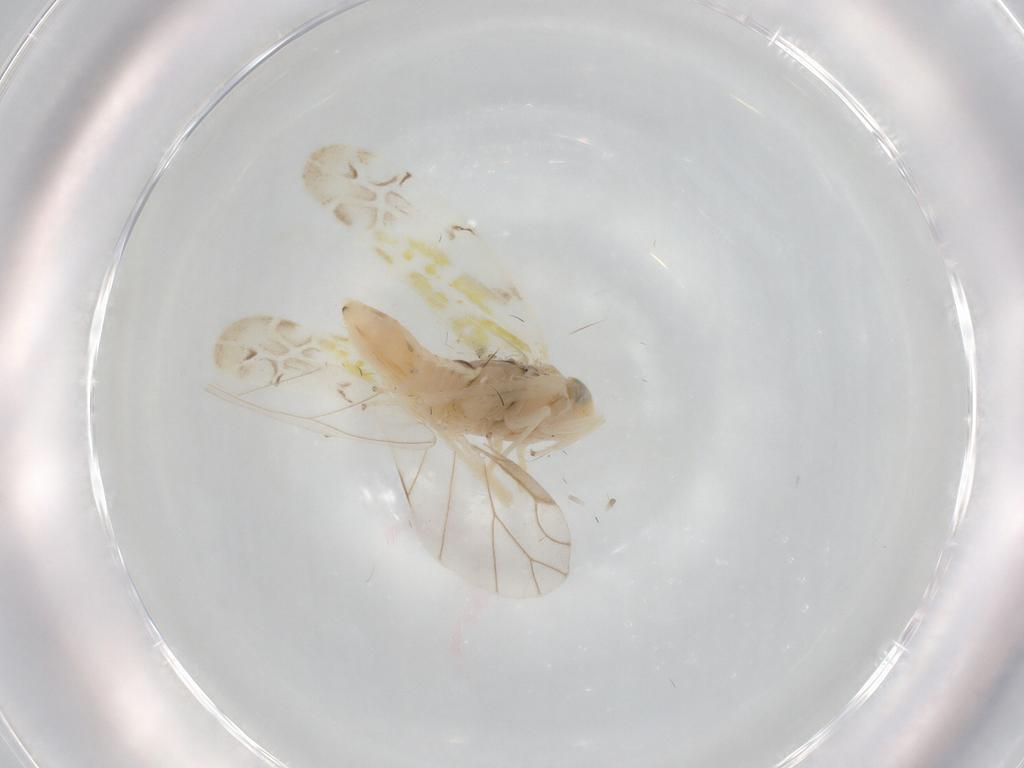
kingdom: Animalia
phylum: Arthropoda
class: Insecta
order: Hemiptera
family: Cicadellidae
